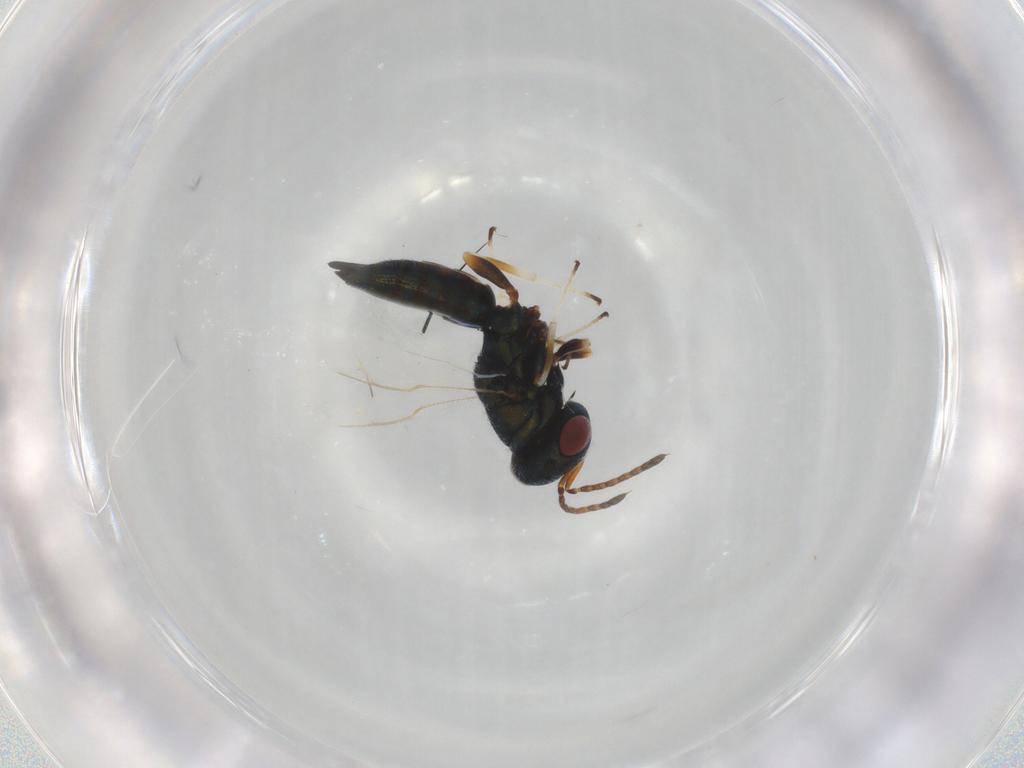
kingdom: Animalia
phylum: Arthropoda
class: Insecta
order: Hymenoptera
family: Pteromalidae
